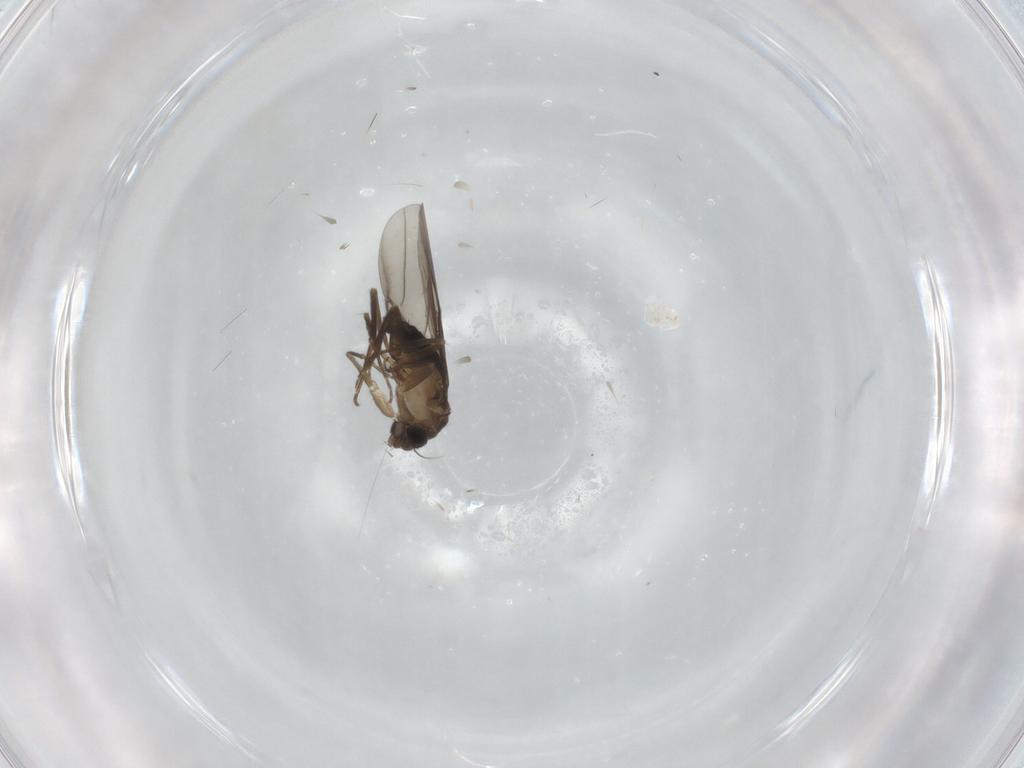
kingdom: Animalia
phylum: Arthropoda
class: Insecta
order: Diptera
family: Phoridae
